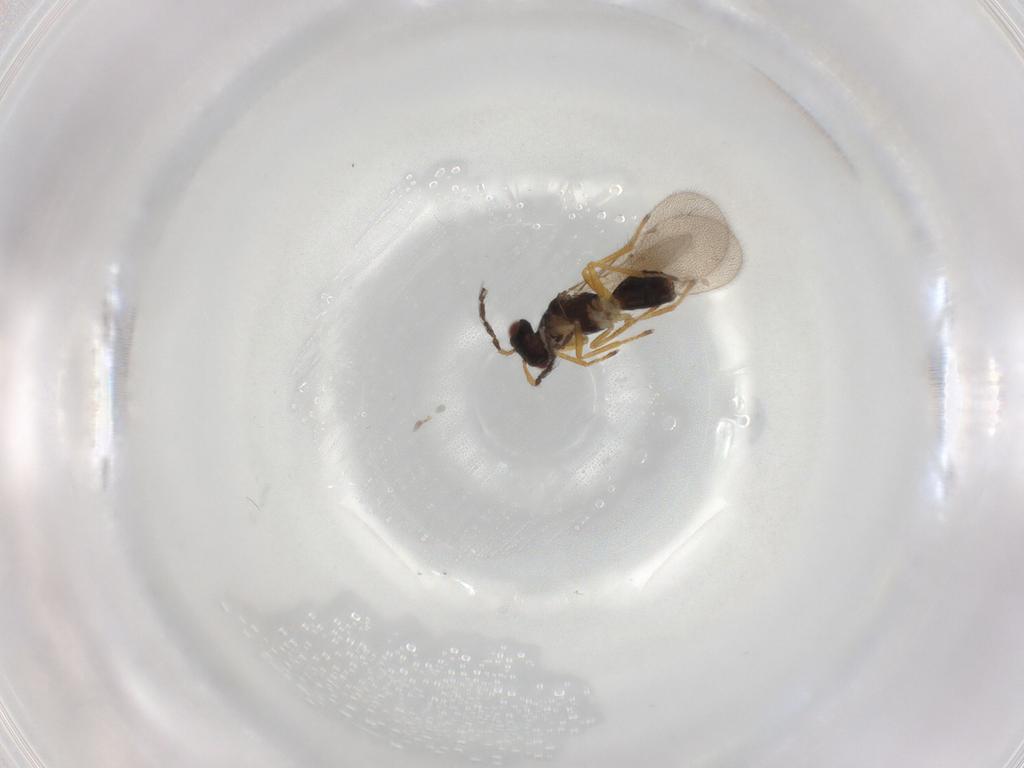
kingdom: Animalia
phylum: Arthropoda
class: Insecta
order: Hymenoptera
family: Eulophidae
